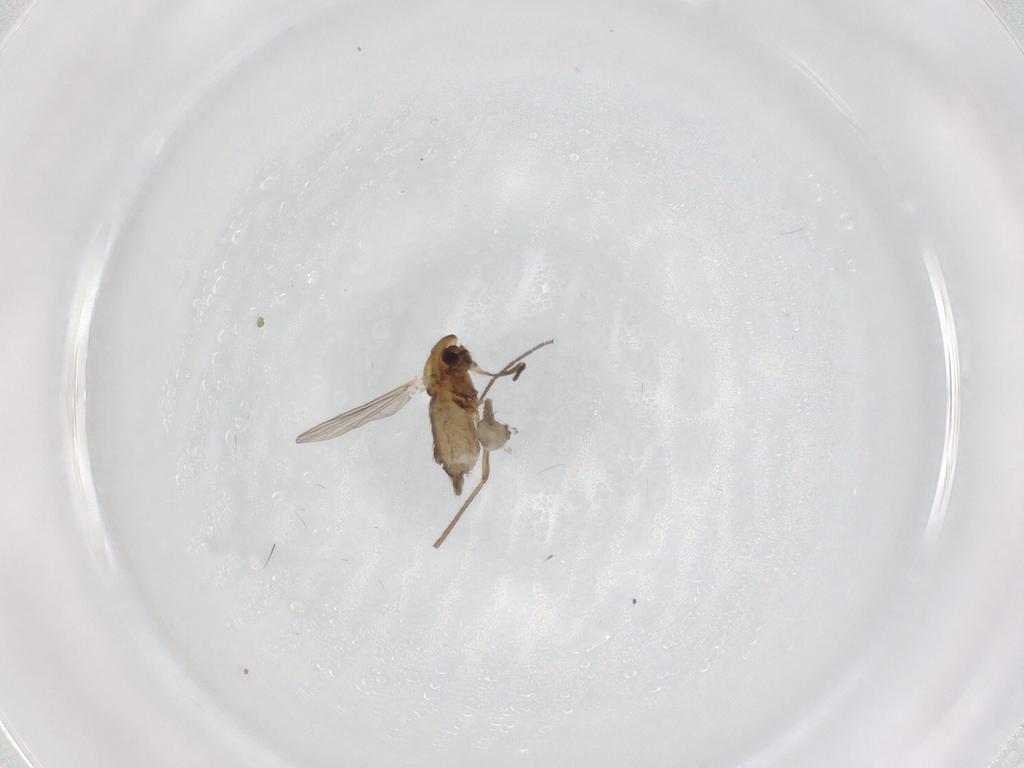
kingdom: Animalia
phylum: Arthropoda
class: Insecta
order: Diptera
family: Chironomidae
